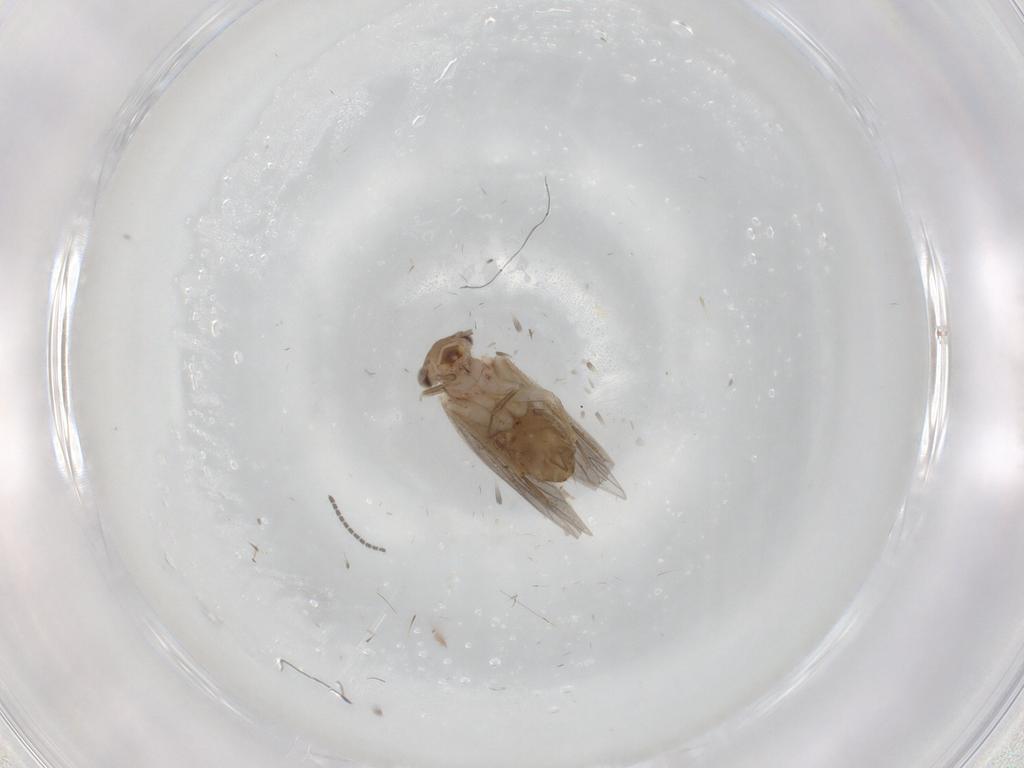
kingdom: Animalia
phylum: Arthropoda
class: Insecta
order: Psocodea
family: Lepidopsocidae
